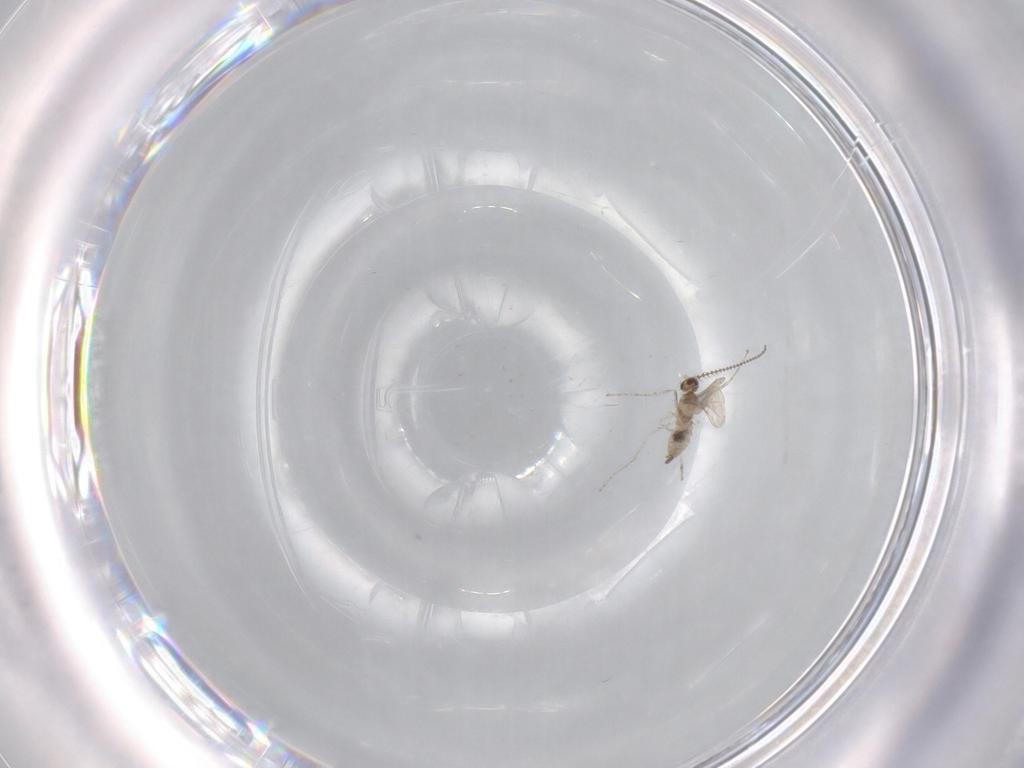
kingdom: Animalia
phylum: Arthropoda
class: Insecta
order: Diptera
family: Cecidomyiidae
